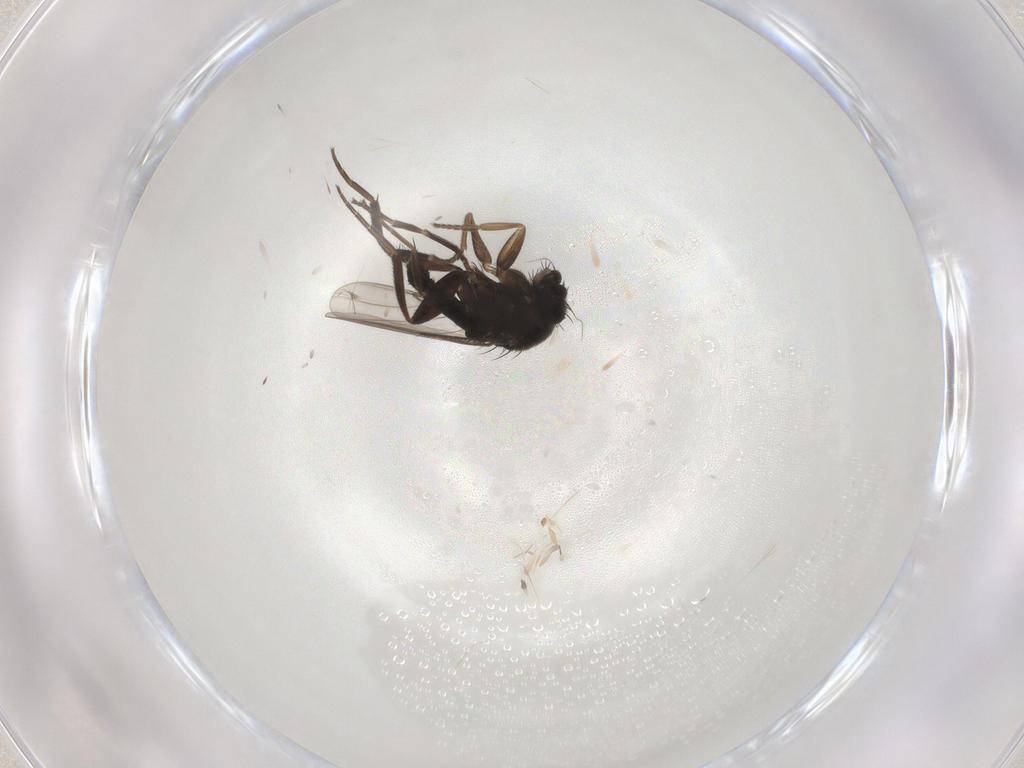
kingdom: Animalia
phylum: Arthropoda
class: Insecta
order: Diptera
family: Phoridae
